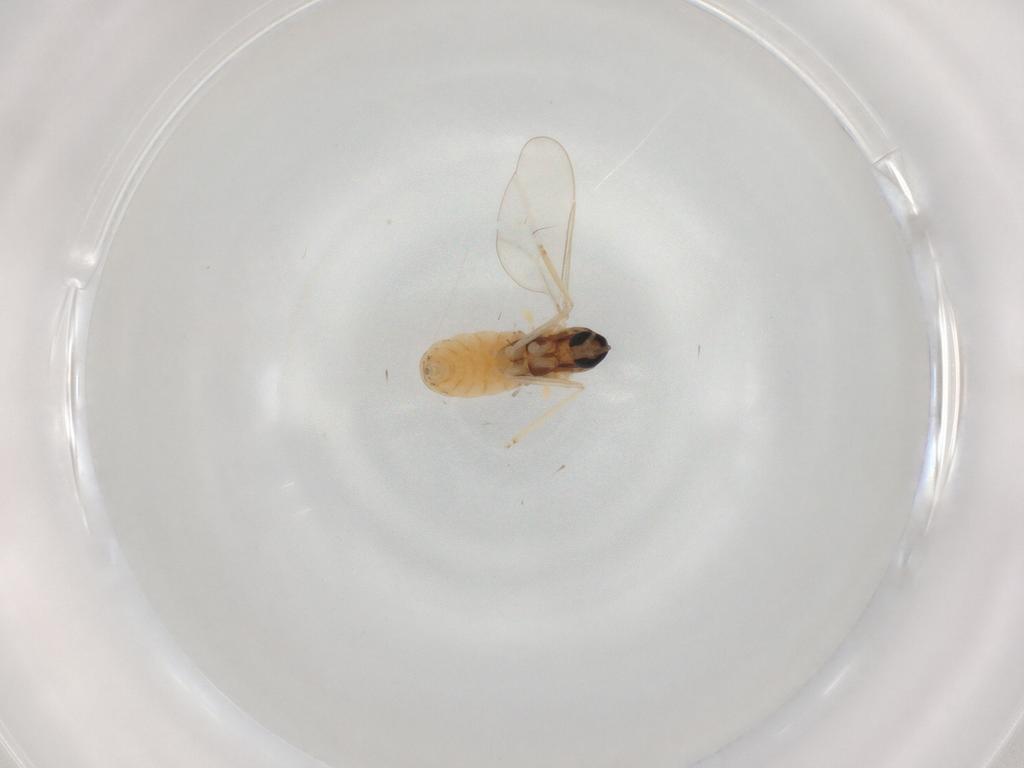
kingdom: Animalia
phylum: Arthropoda
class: Insecta
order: Diptera
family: Cecidomyiidae
